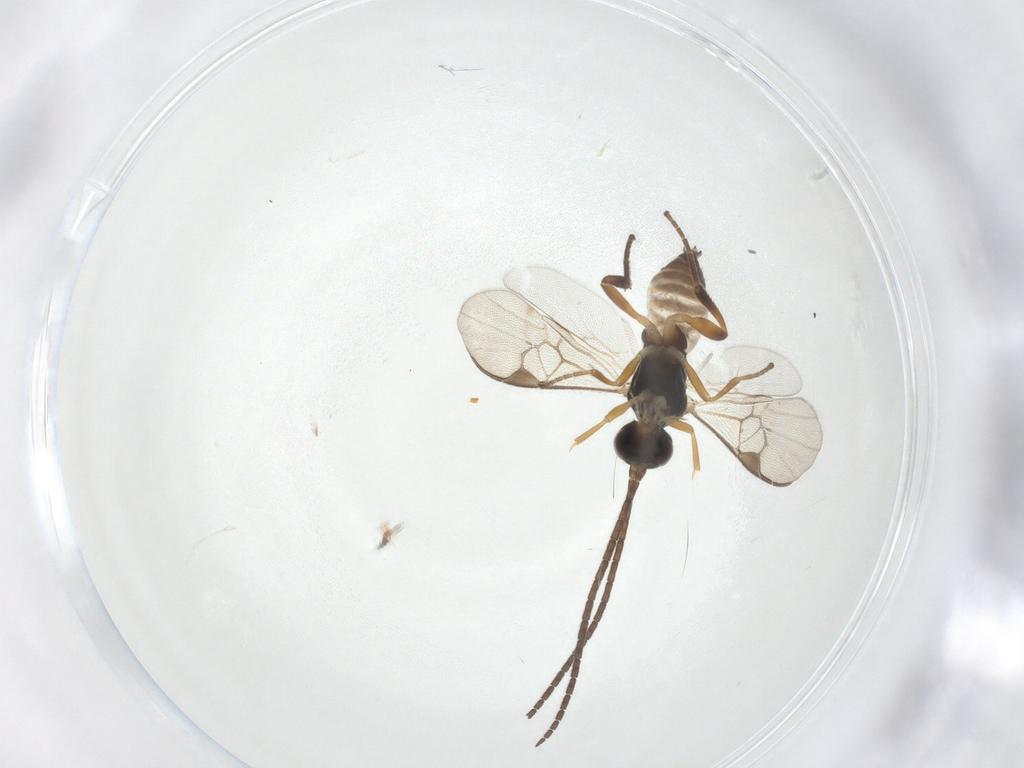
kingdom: Animalia
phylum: Arthropoda
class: Insecta
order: Hymenoptera
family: Braconidae
